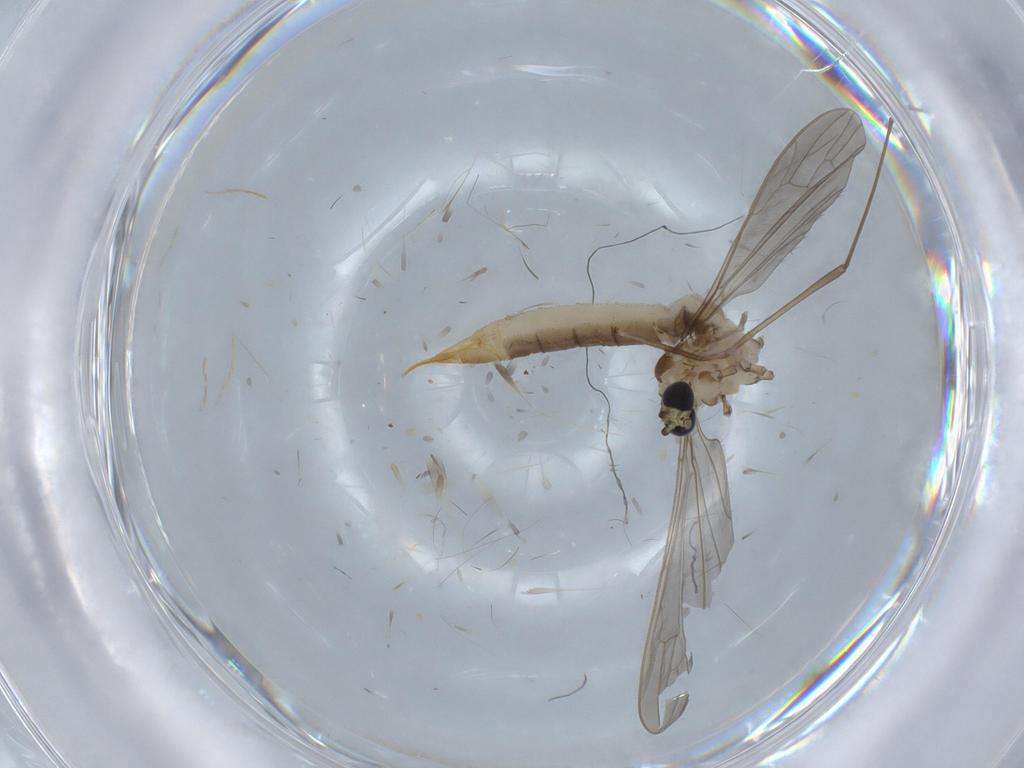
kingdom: Animalia
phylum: Arthropoda
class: Insecta
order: Diptera
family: Limoniidae
